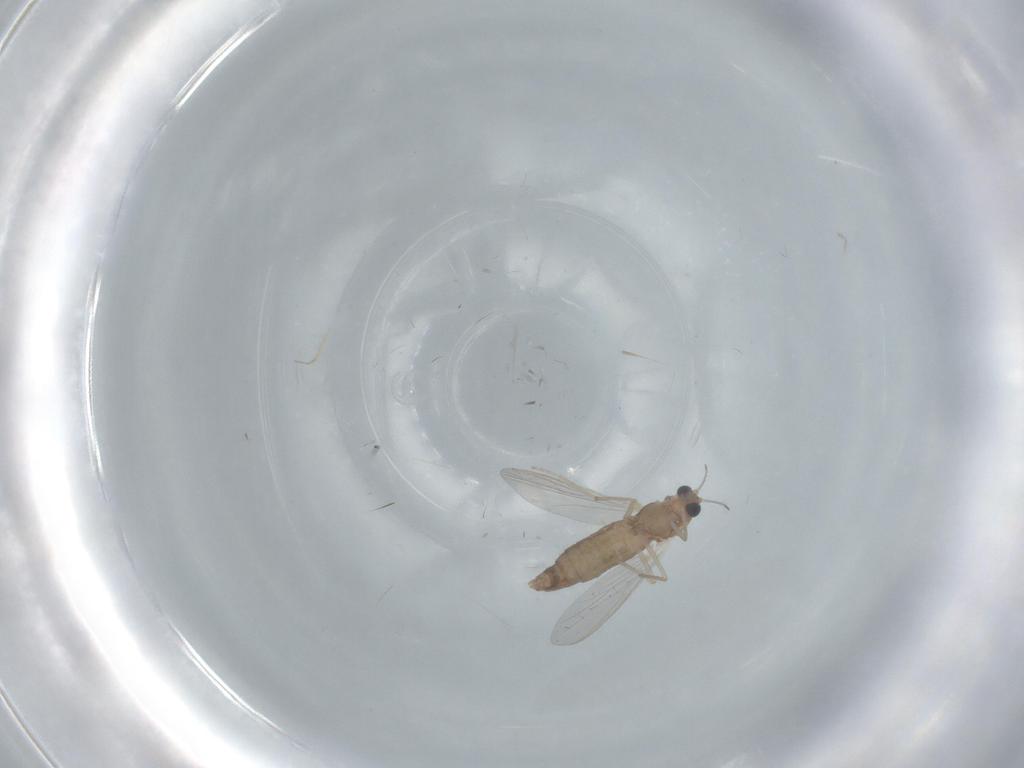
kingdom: Animalia
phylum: Arthropoda
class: Insecta
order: Diptera
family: Chironomidae
